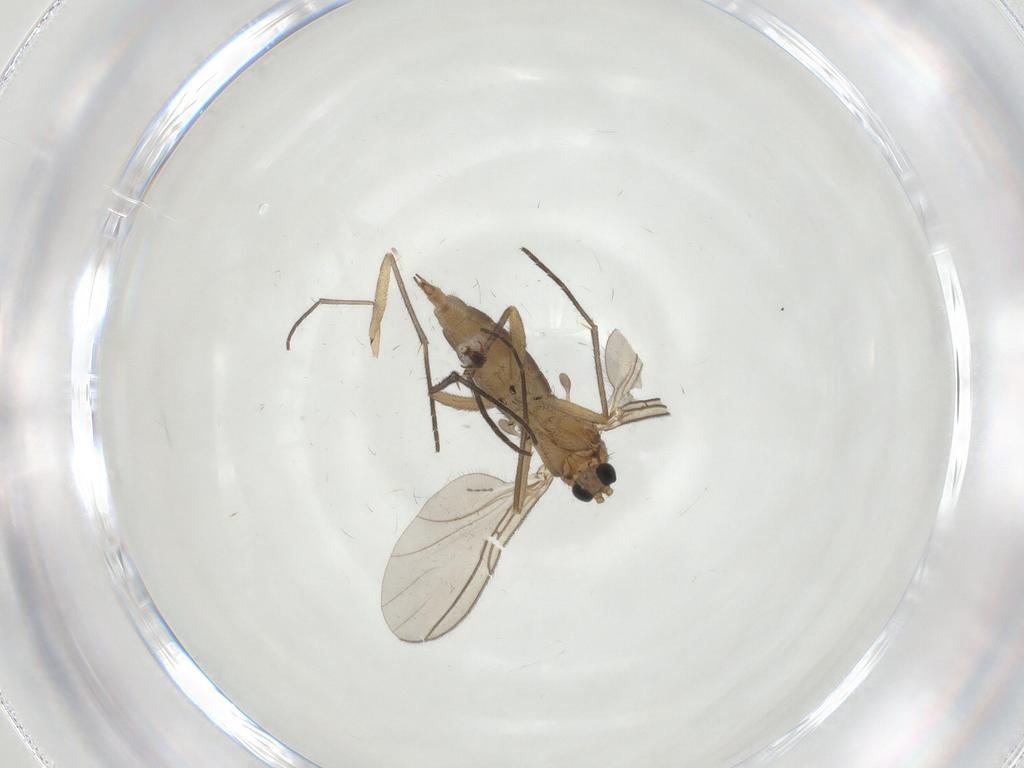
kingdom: Animalia
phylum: Arthropoda
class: Insecta
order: Diptera
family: Sciaridae
